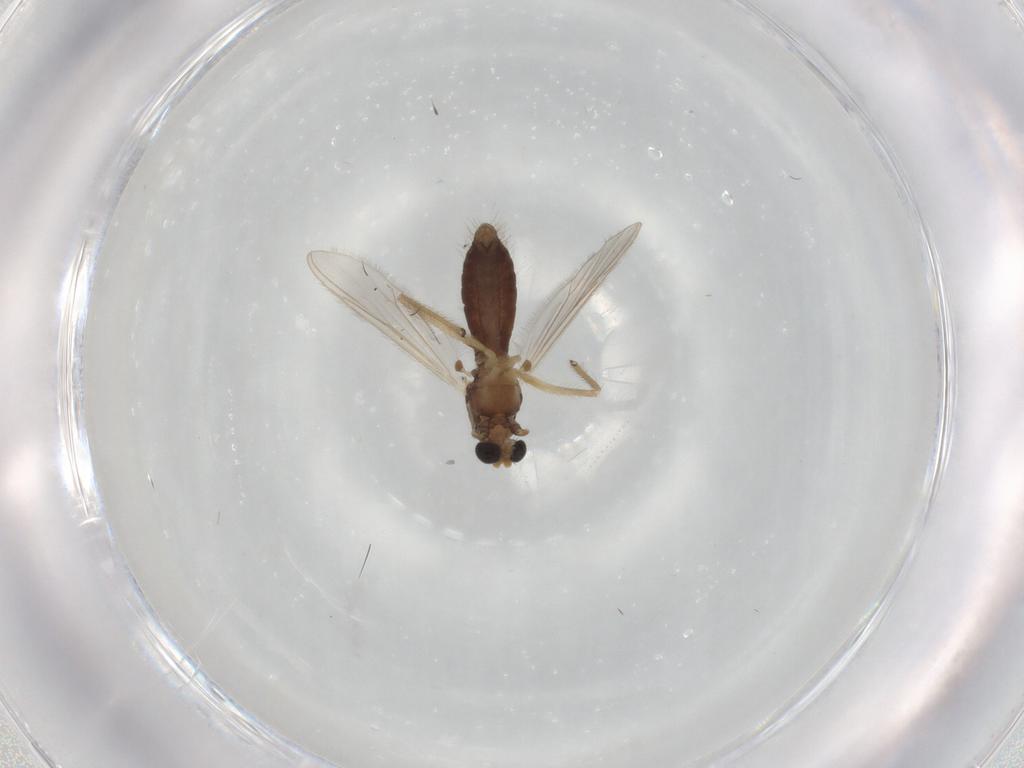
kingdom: Animalia
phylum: Arthropoda
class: Insecta
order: Diptera
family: Chironomidae
